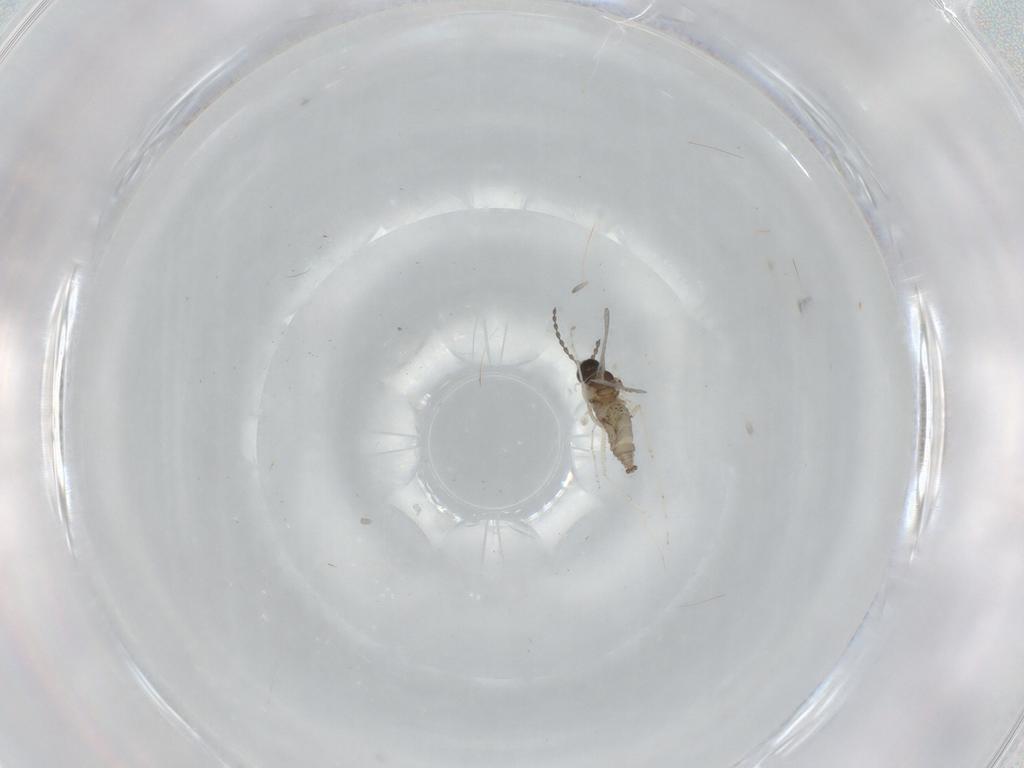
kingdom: Animalia
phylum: Arthropoda
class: Insecta
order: Diptera
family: Cecidomyiidae
